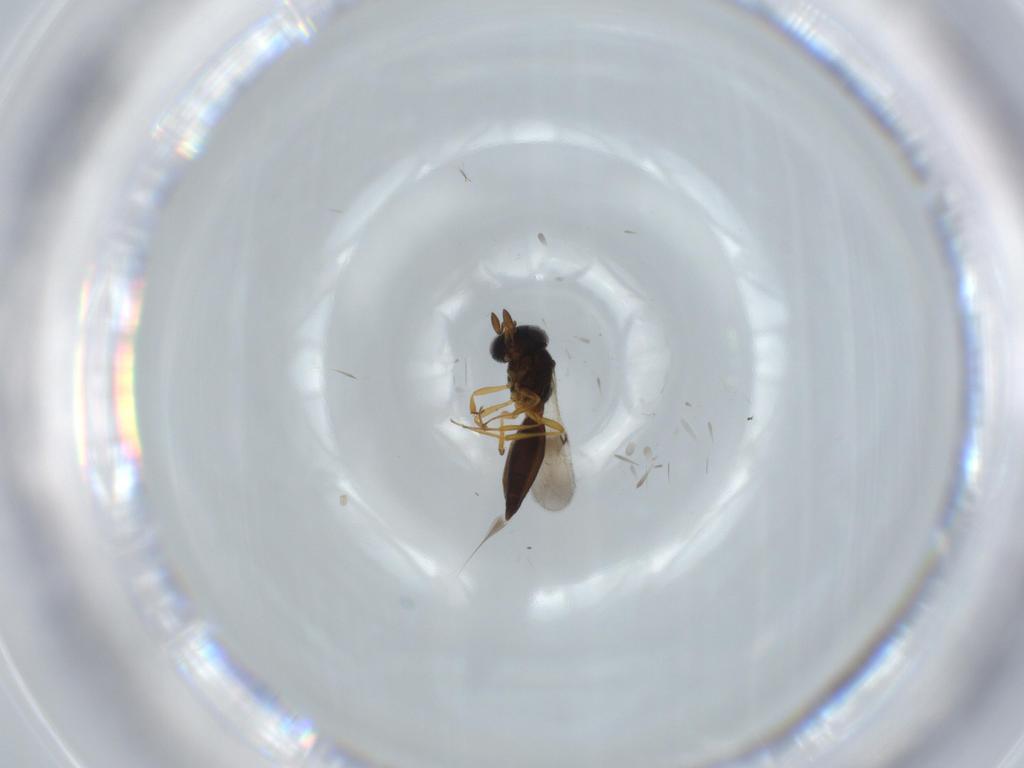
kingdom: Animalia
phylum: Arthropoda
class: Insecta
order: Hymenoptera
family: Scelionidae
